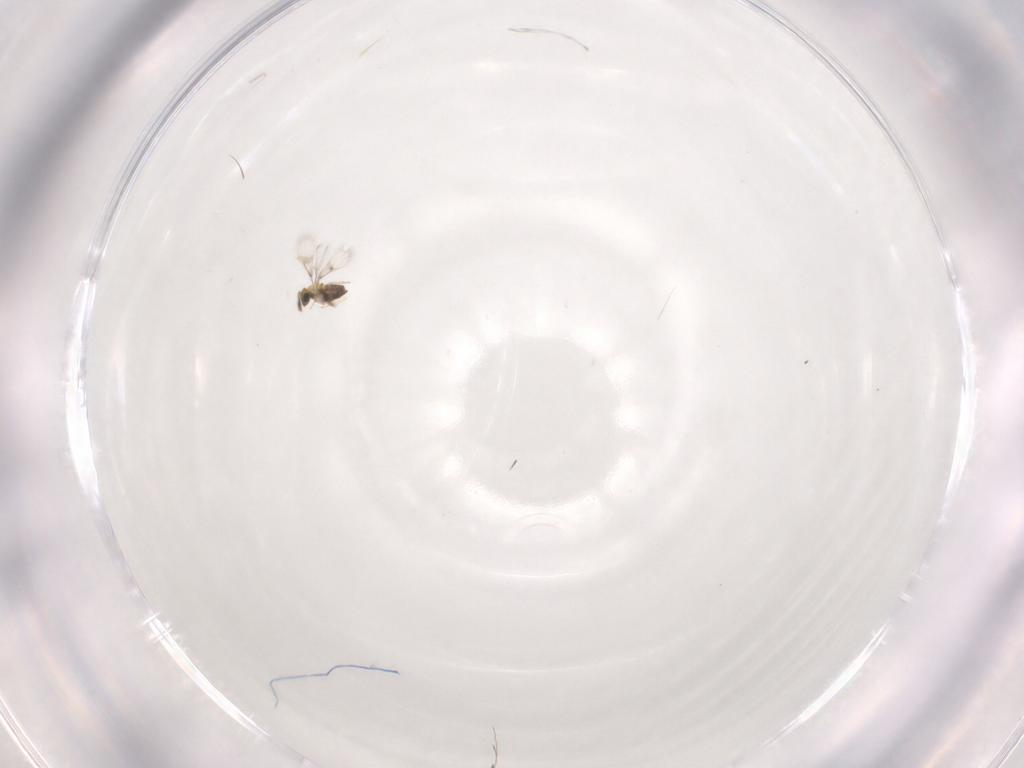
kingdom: Animalia
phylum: Arthropoda
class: Insecta
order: Hymenoptera
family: Trichogrammatidae
